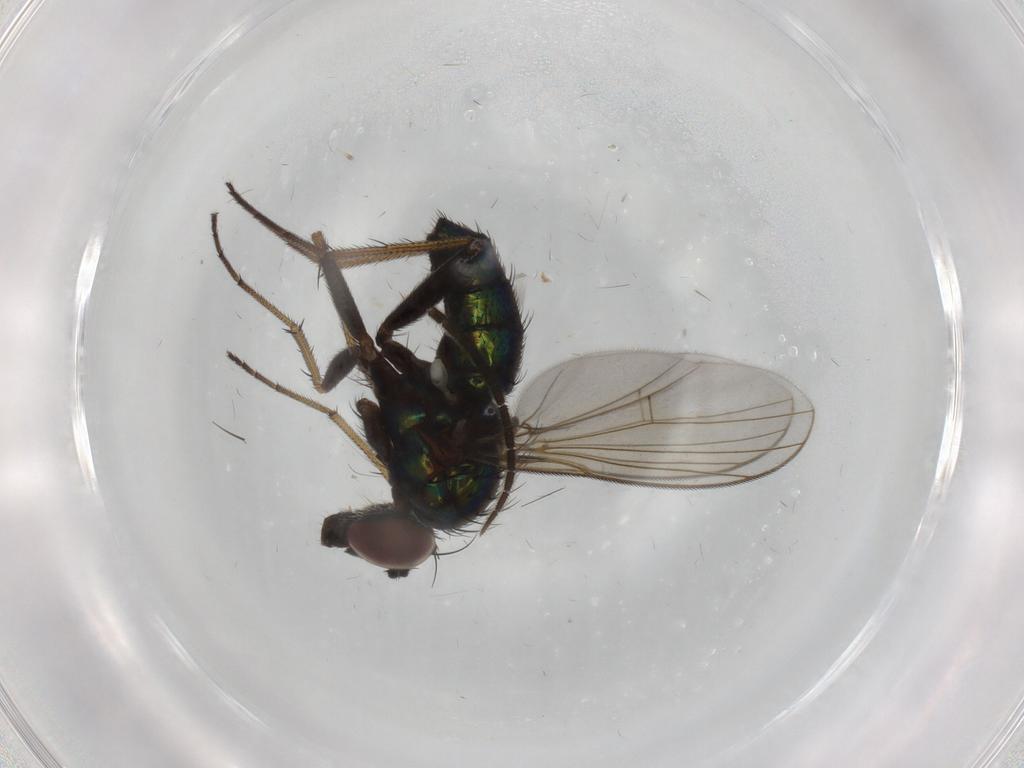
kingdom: Animalia
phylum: Arthropoda
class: Insecta
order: Diptera
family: Dolichopodidae
